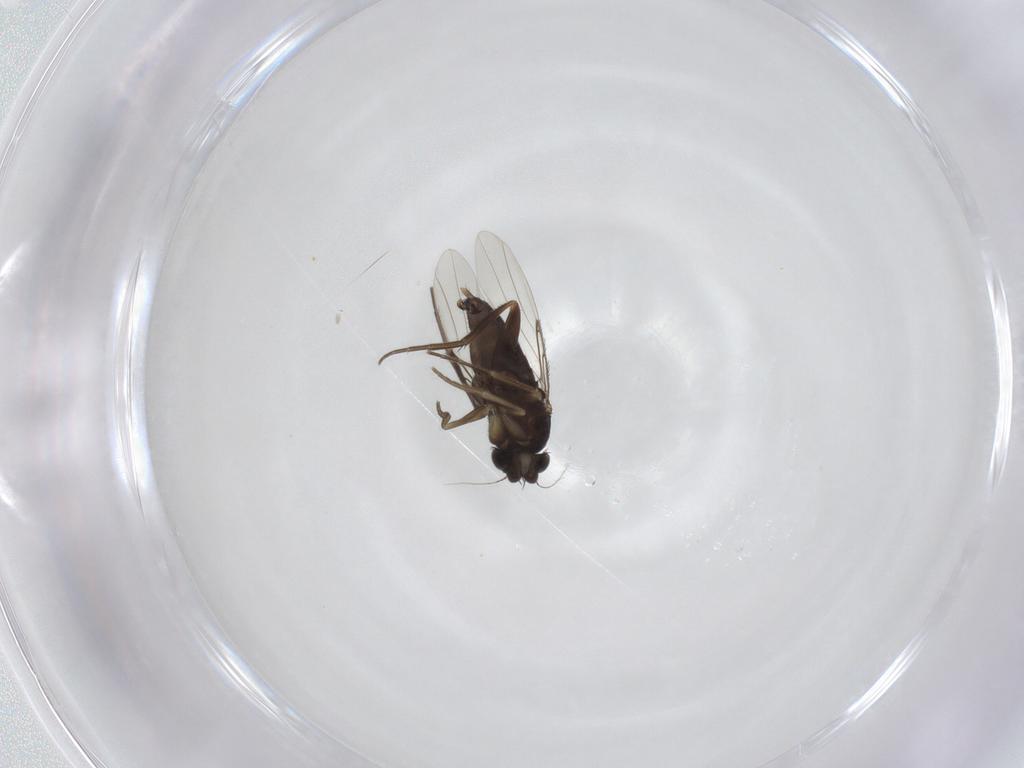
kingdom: Animalia
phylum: Arthropoda
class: Insecta
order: Diptera
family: Phoridae
